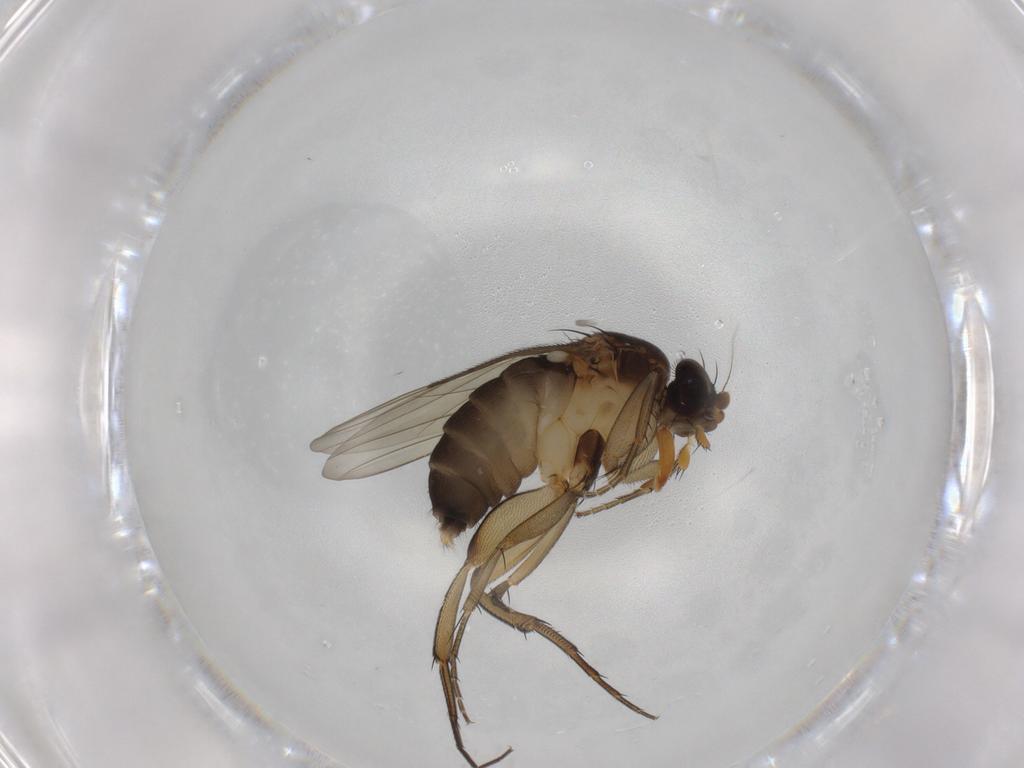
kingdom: Animalia
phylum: Arthropoda
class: Insecta
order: Diptera
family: Phoridae
